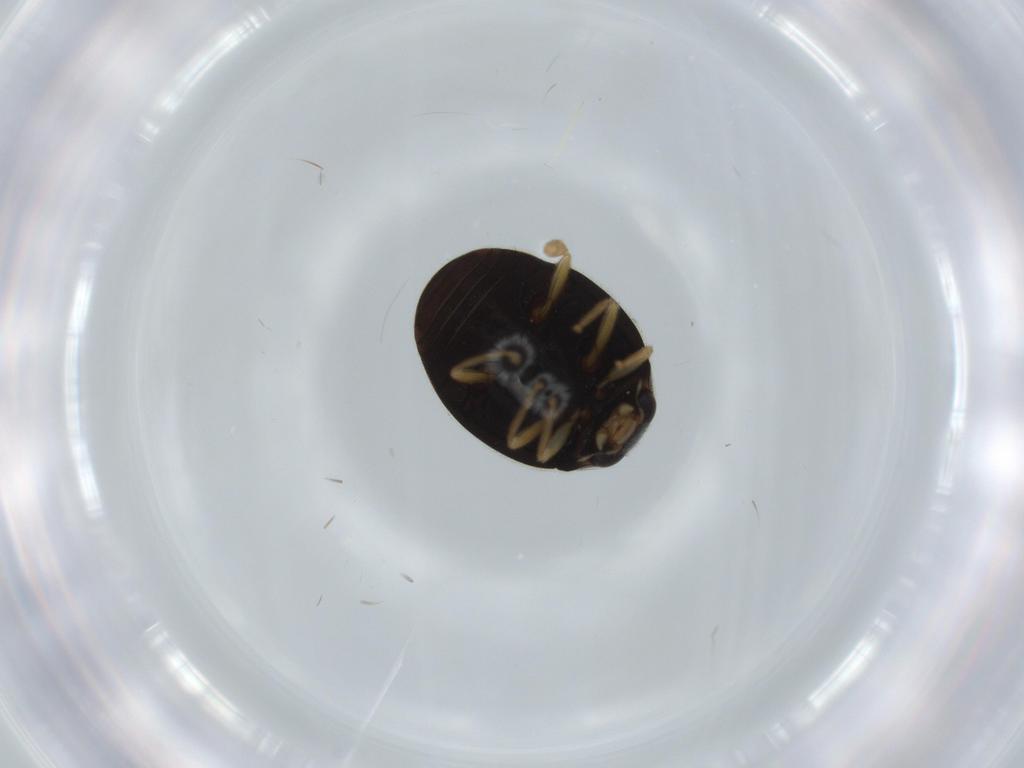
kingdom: Animalia
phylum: Arthropoda
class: Insecta
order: Coleoptera
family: Coccinellidae
